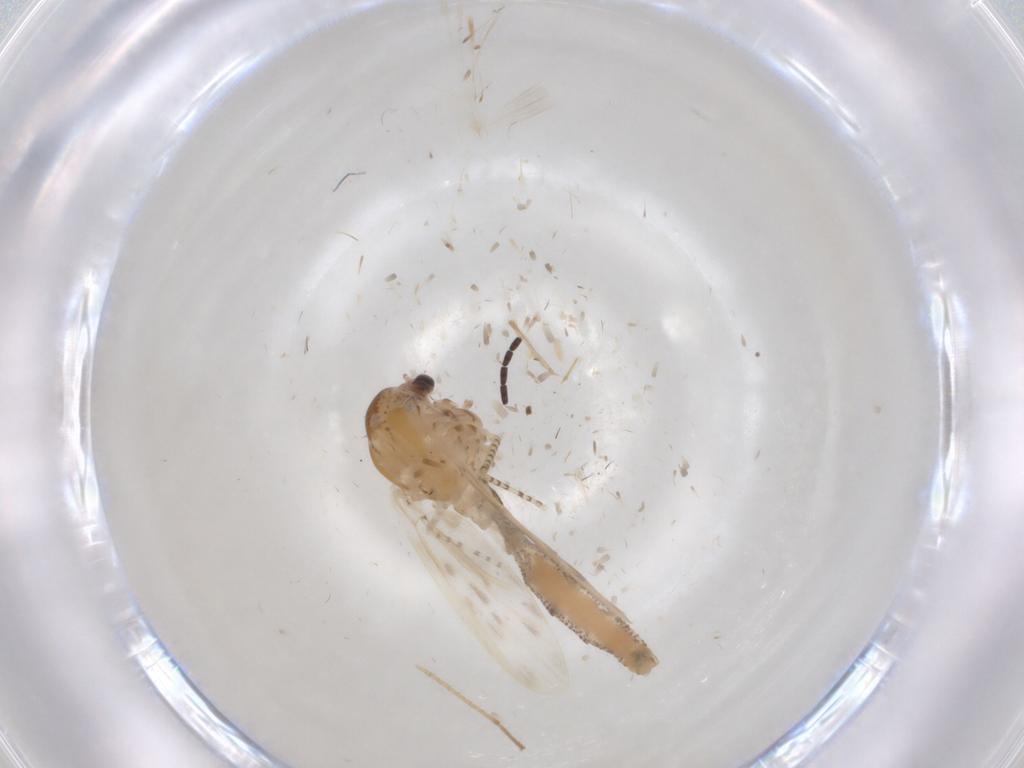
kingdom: Animalia
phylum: Arthropoda
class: Insecta
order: Diptera
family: Chaoboridae
